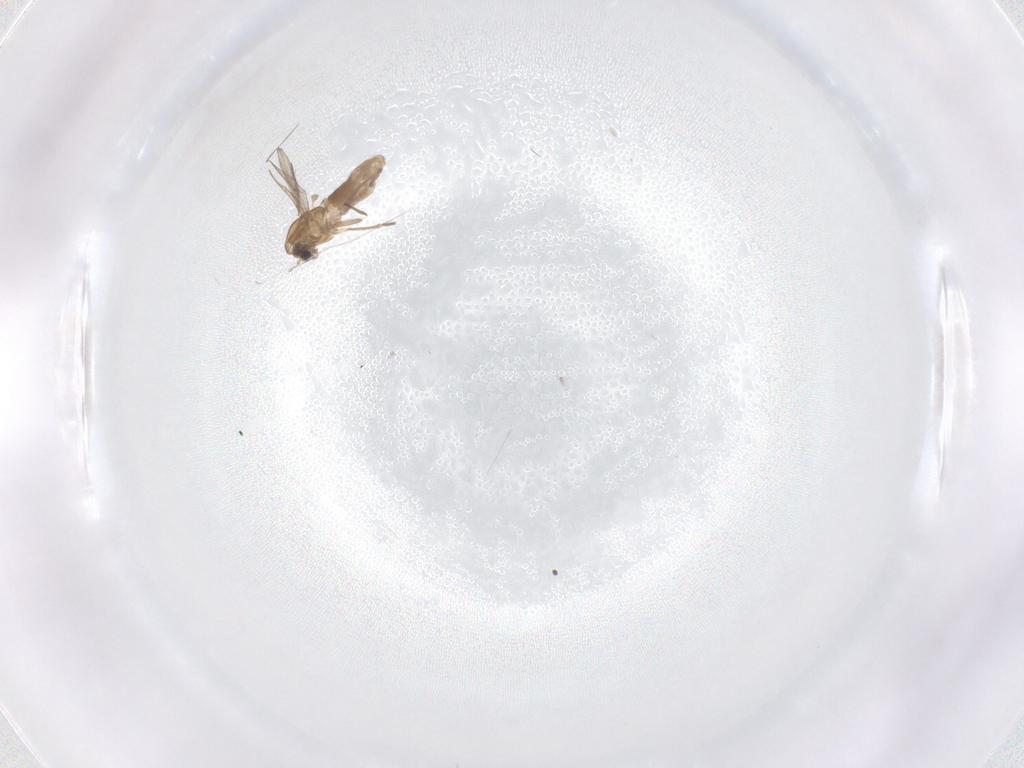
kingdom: Animalia
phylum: Arthropoda
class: Insecta
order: Diptera
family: Chironomidae
